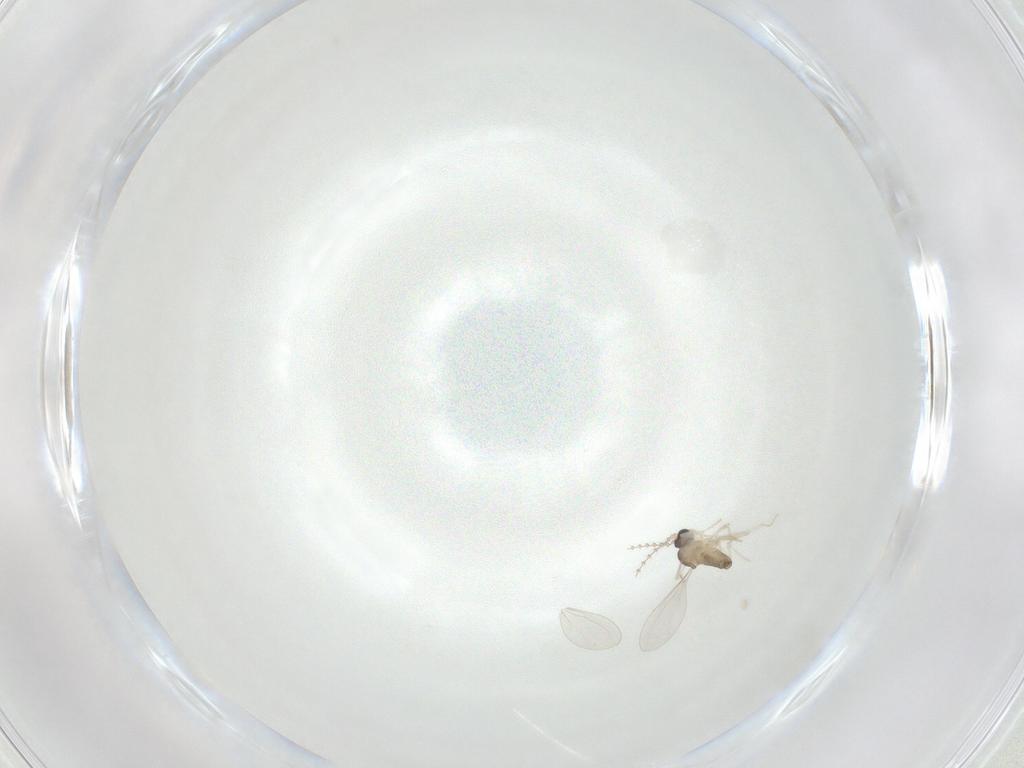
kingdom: Animalia
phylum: Arthropoda
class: Insecta
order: Diptera
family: Cecidomyiidae
